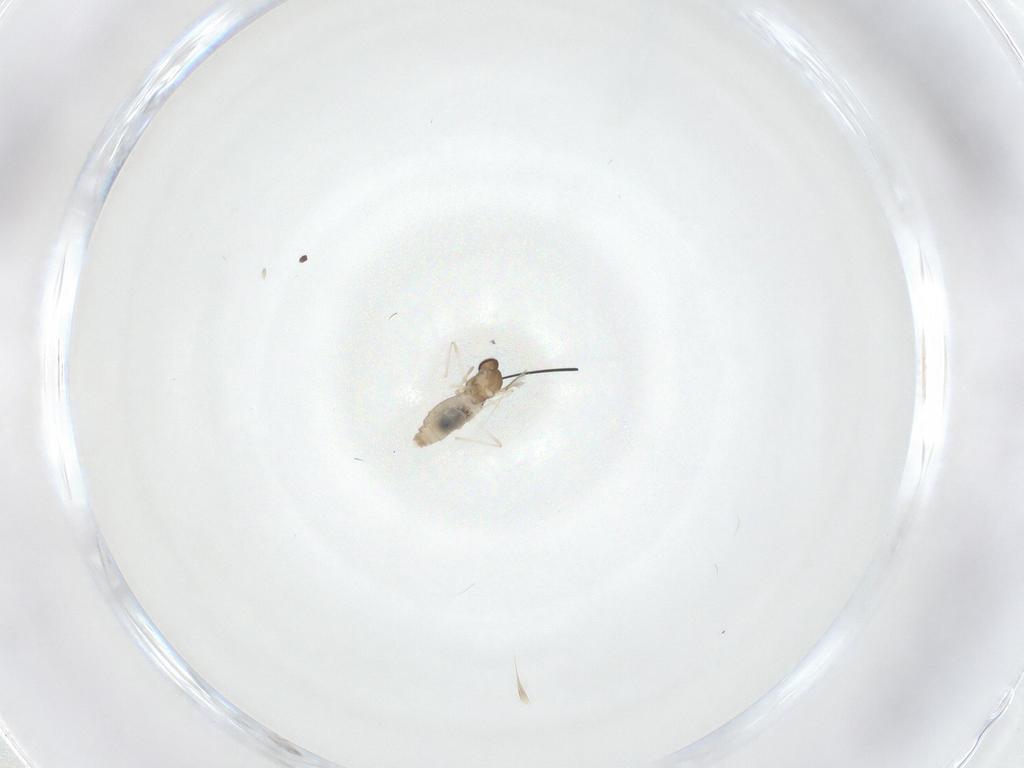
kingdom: Animalia
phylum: Arthropoda
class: Insecta
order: Diptera
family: Cecidomyiidae
